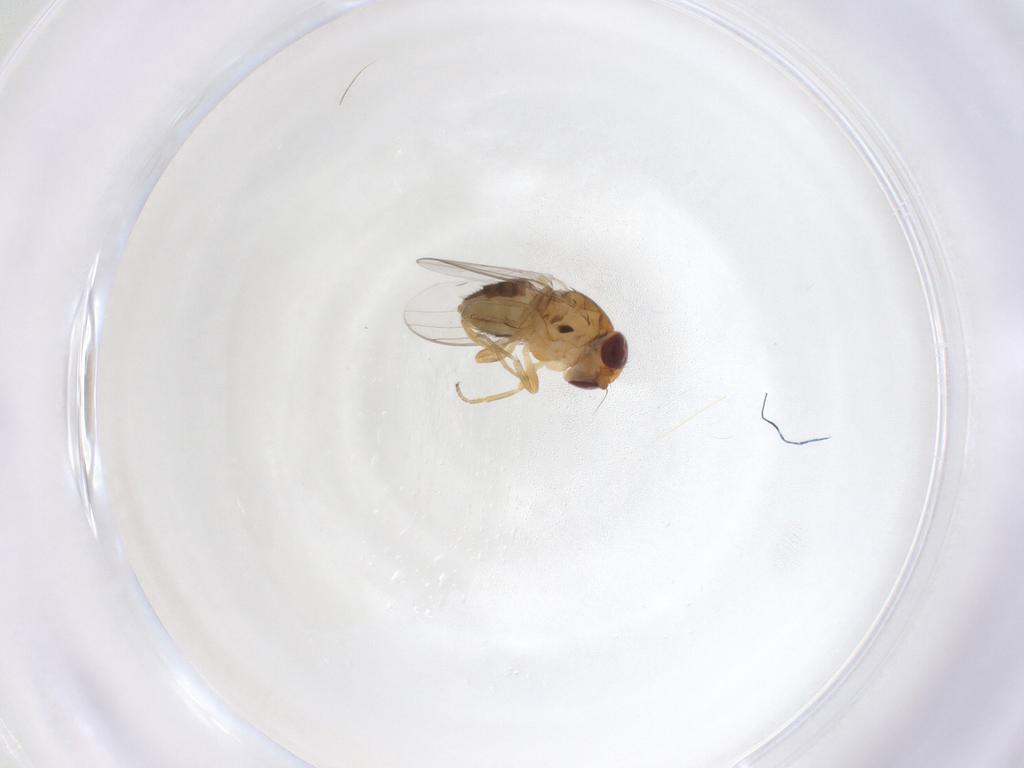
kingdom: Animalia
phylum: Arthropoda
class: Insecta
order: Diptera
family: Chloropidae
